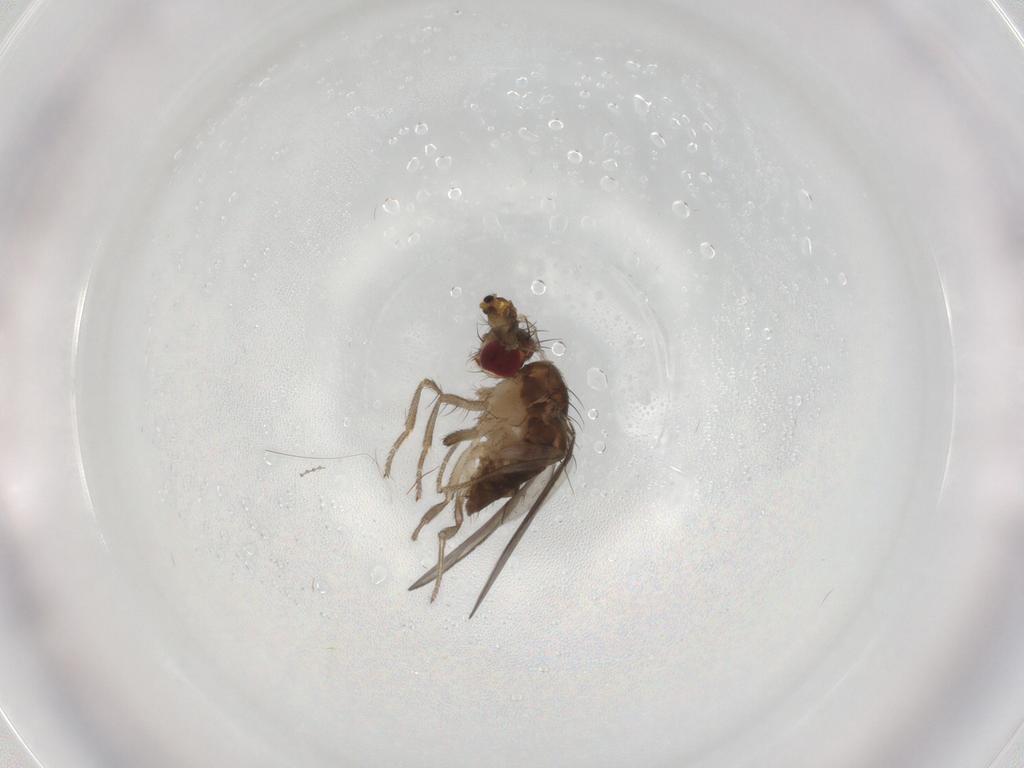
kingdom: Animalia
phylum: Arthropoda
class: Insecta
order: Diptera
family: Cecidomyiidae
